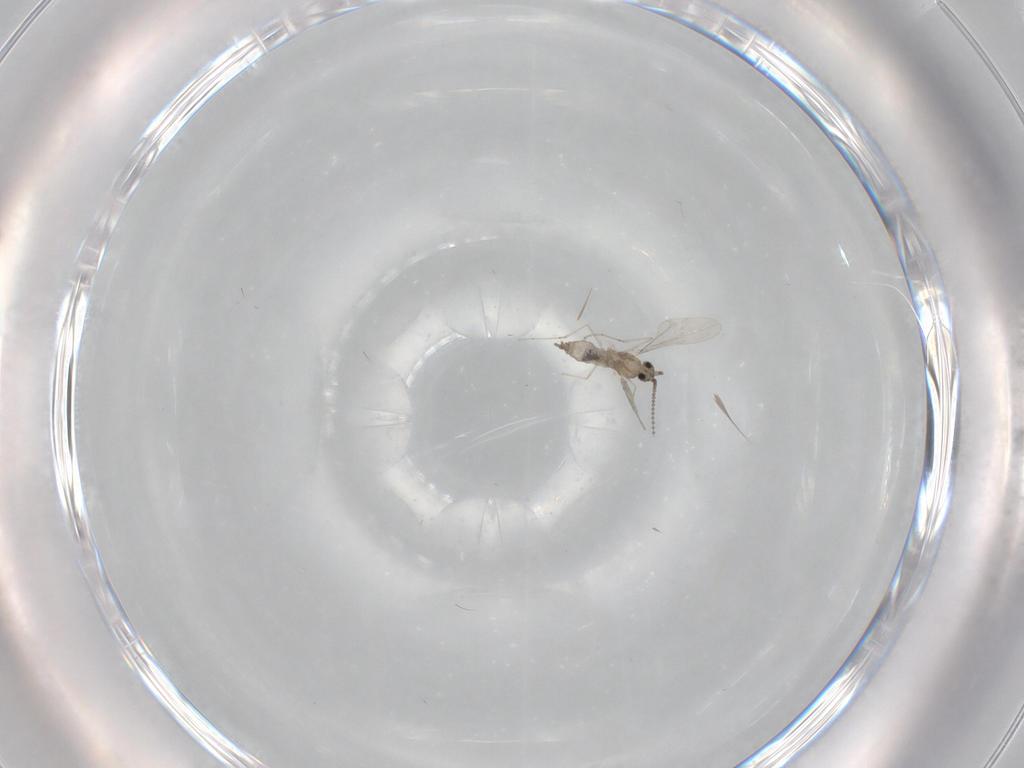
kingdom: Animalia
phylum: Arthropoda
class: Insecta
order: Diptera
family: Cecidomyiidae
